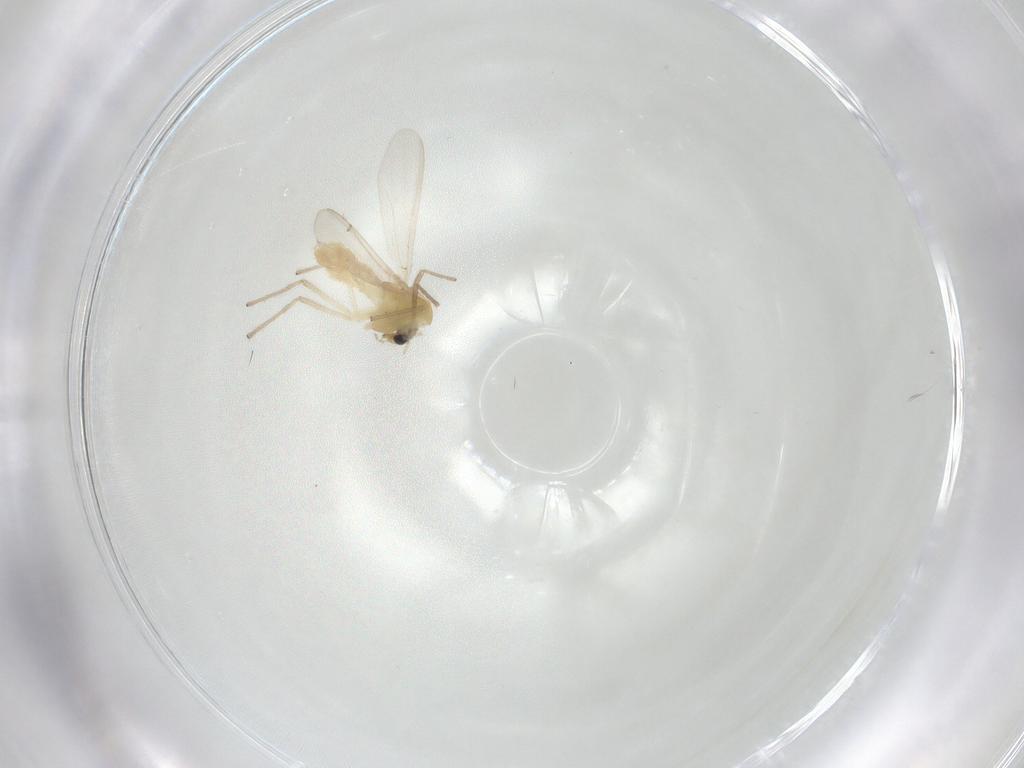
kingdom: Animalia
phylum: Arthropoda
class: Insecta
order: Diptera
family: Chironomidae
